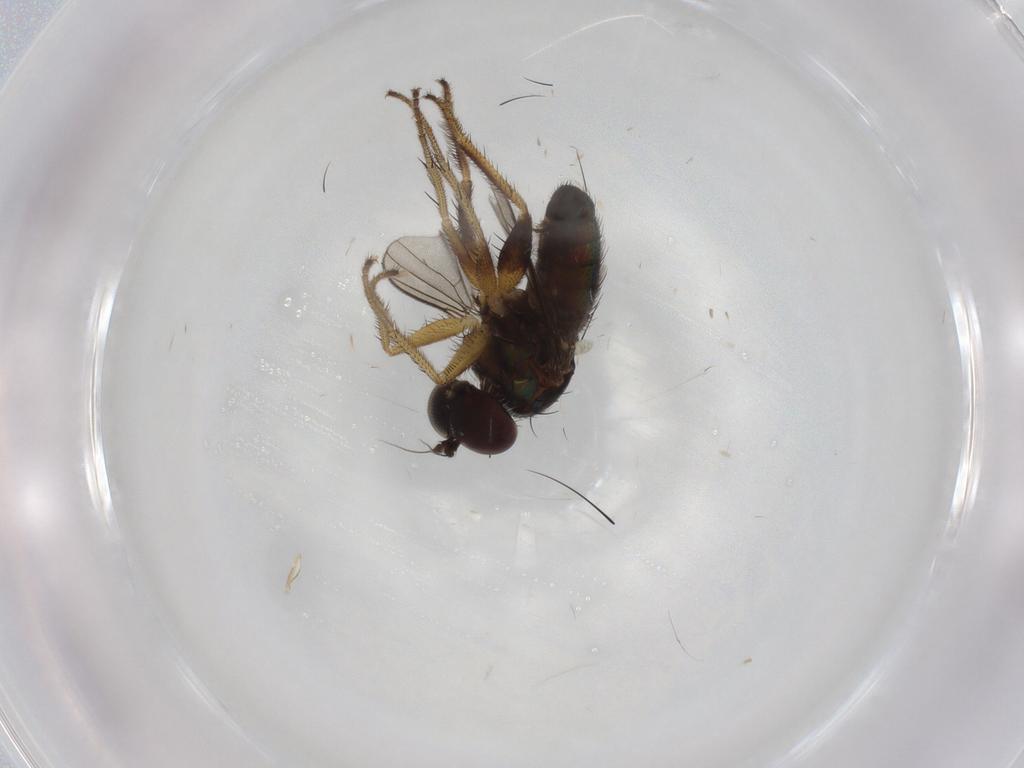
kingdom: Animalia
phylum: Arthropoda
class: Insecta
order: Diptera
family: Dolichopodidae
